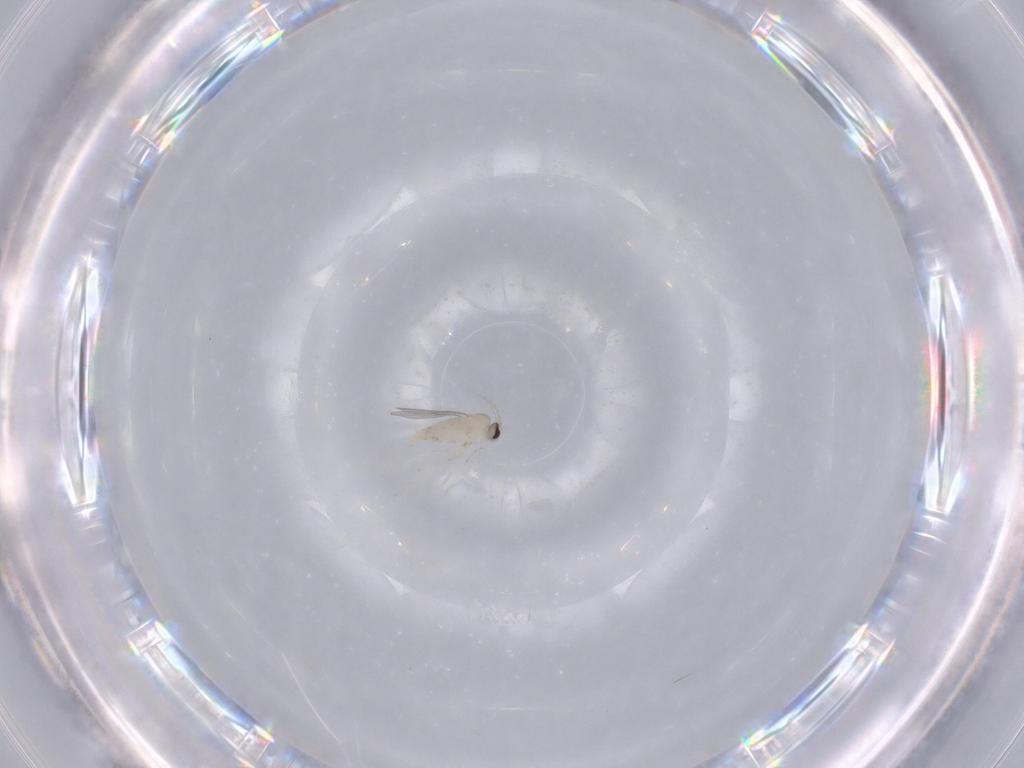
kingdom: Animalia
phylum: Arthropoda
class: Insecta
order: Diptera
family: Cecidomyiidae
